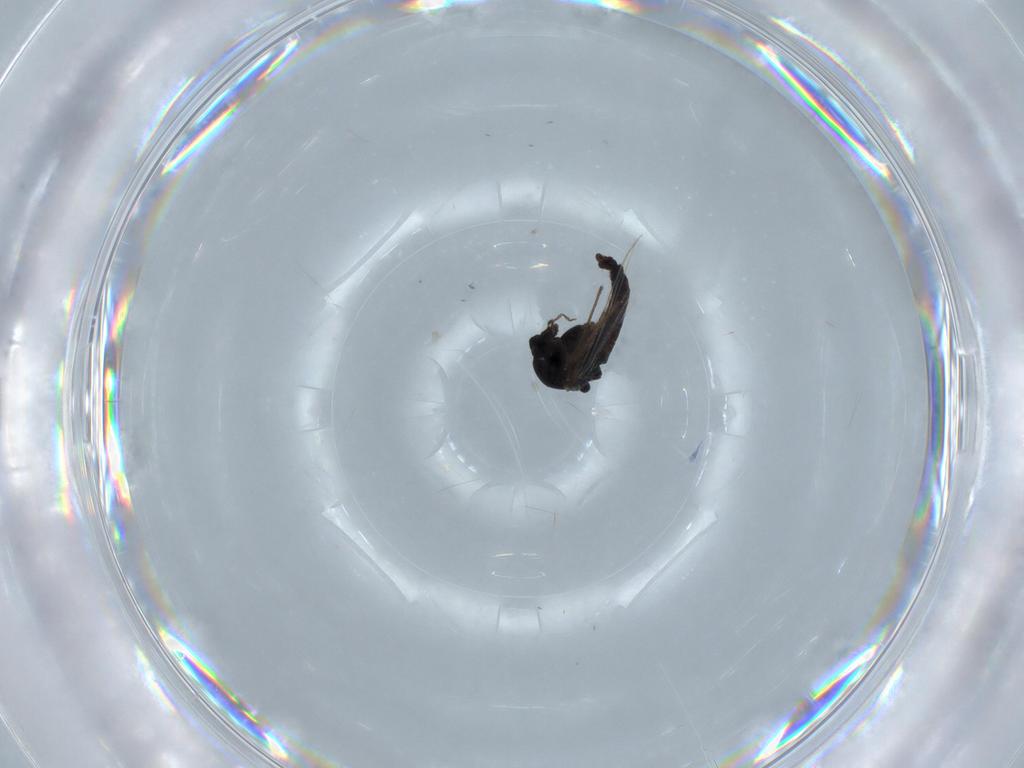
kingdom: Animalia
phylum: Arthropoda
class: Insecta
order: Diptera
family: Chironomidae
